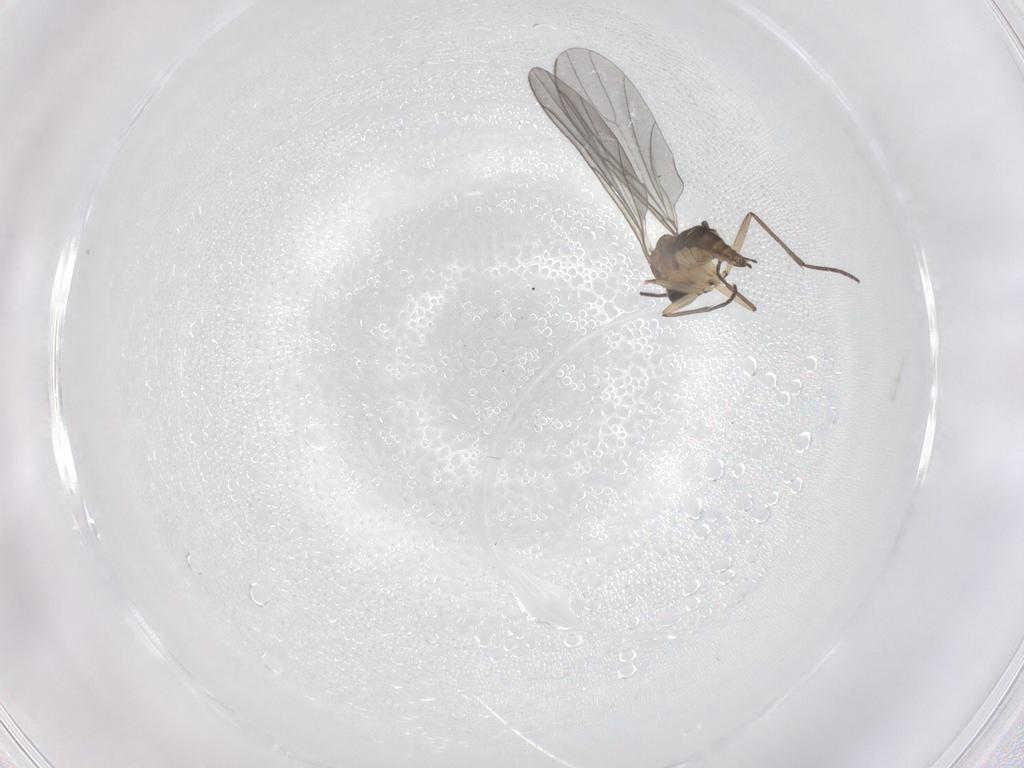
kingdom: Animalia
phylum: Arthropoda
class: Insecta
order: Diptera
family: Sciaridae
